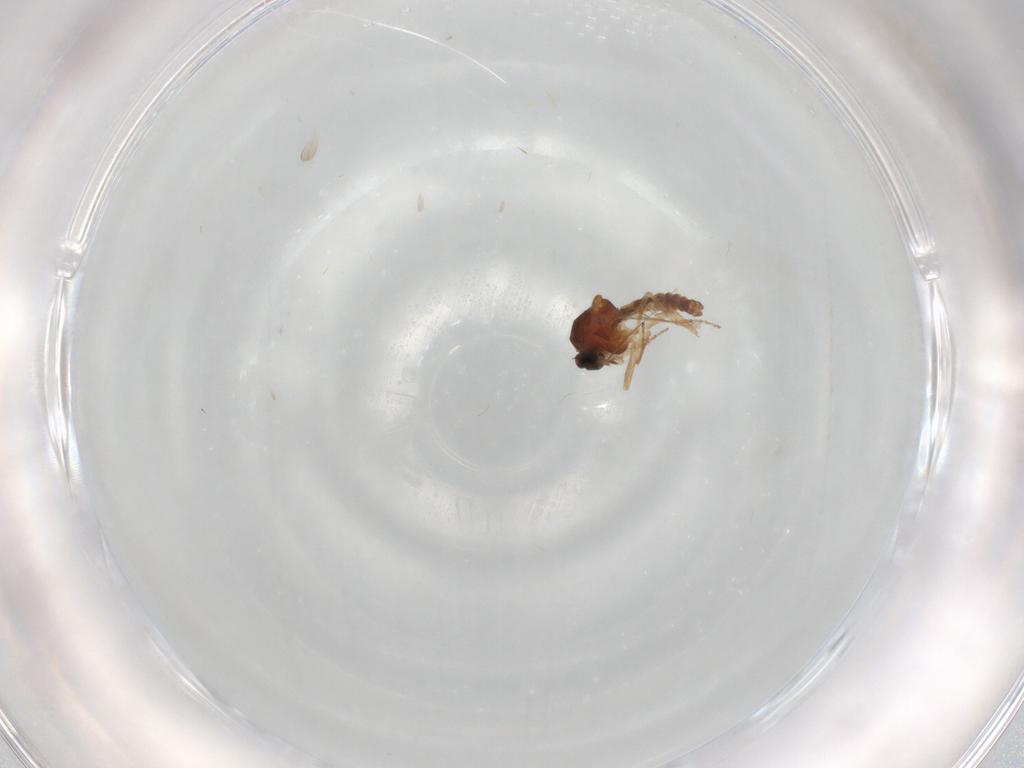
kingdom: Animalia
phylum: Arthropoda
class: Insecta
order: Diptera
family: Ceratopogonidae
